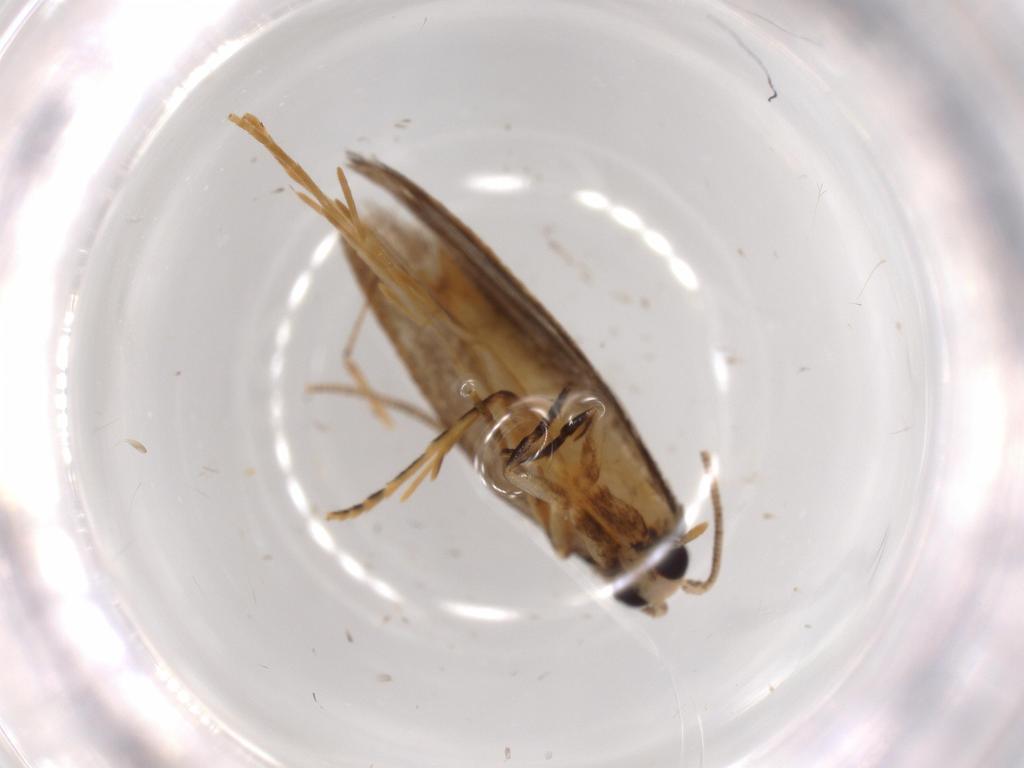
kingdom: Animalia
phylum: Arthropoda
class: Insecta
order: Lepidoptera
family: Tineidae
